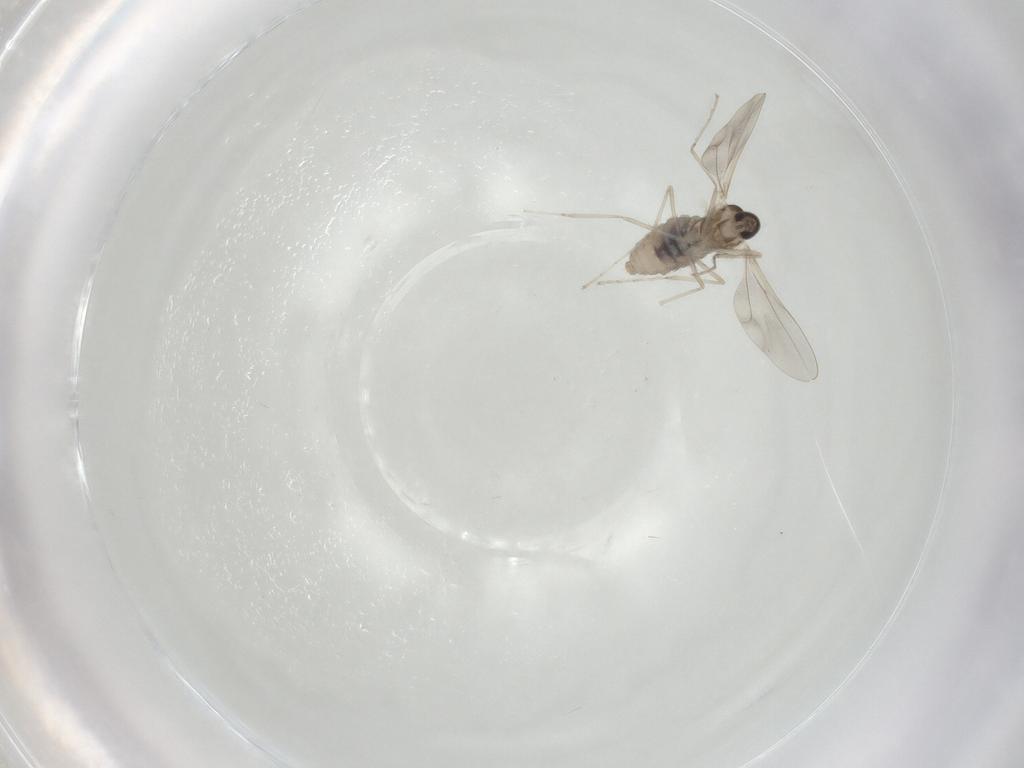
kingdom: Animalia
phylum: Arthropoda
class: Insecta
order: Diptera
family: Cecidomyiidae
